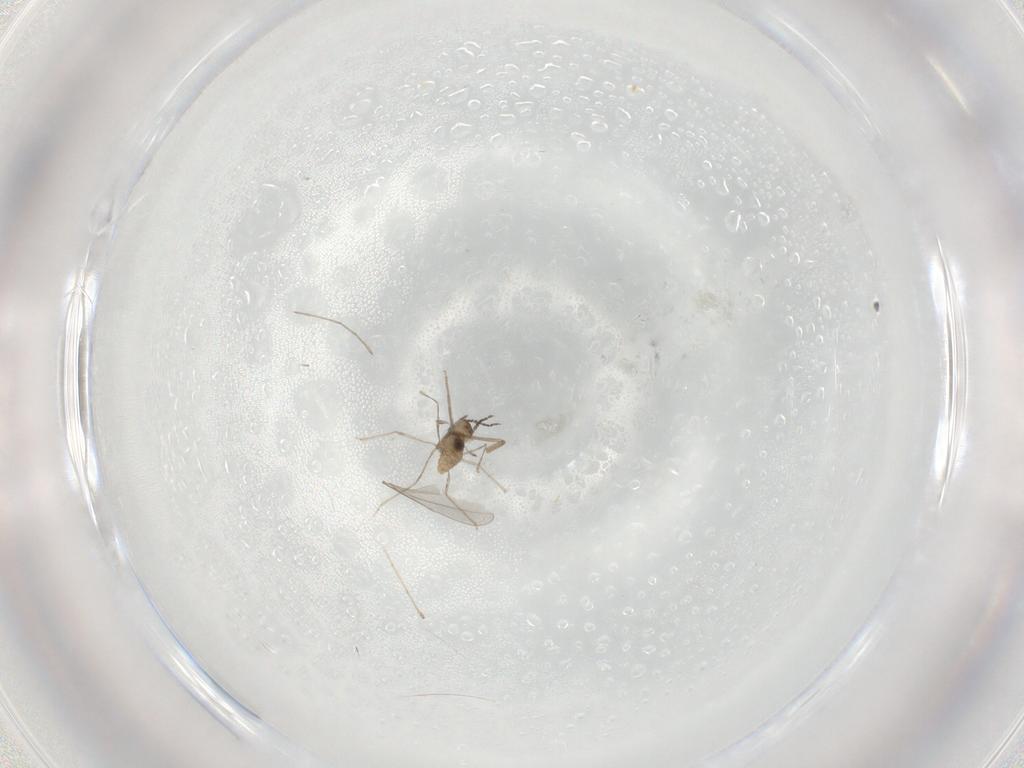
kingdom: Animalia
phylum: Arthropoda
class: Insecta
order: Diptera
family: Cecidomyiidae
